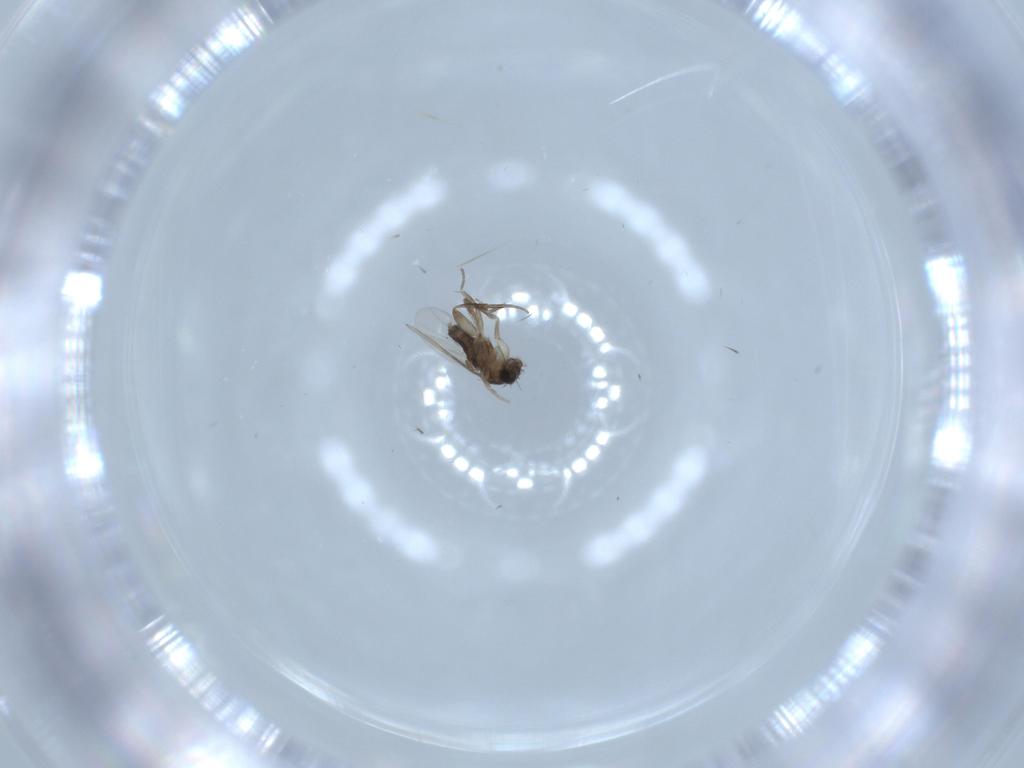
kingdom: Animalia
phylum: Arthropoda
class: Insecta
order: Diptera
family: Phoridae
